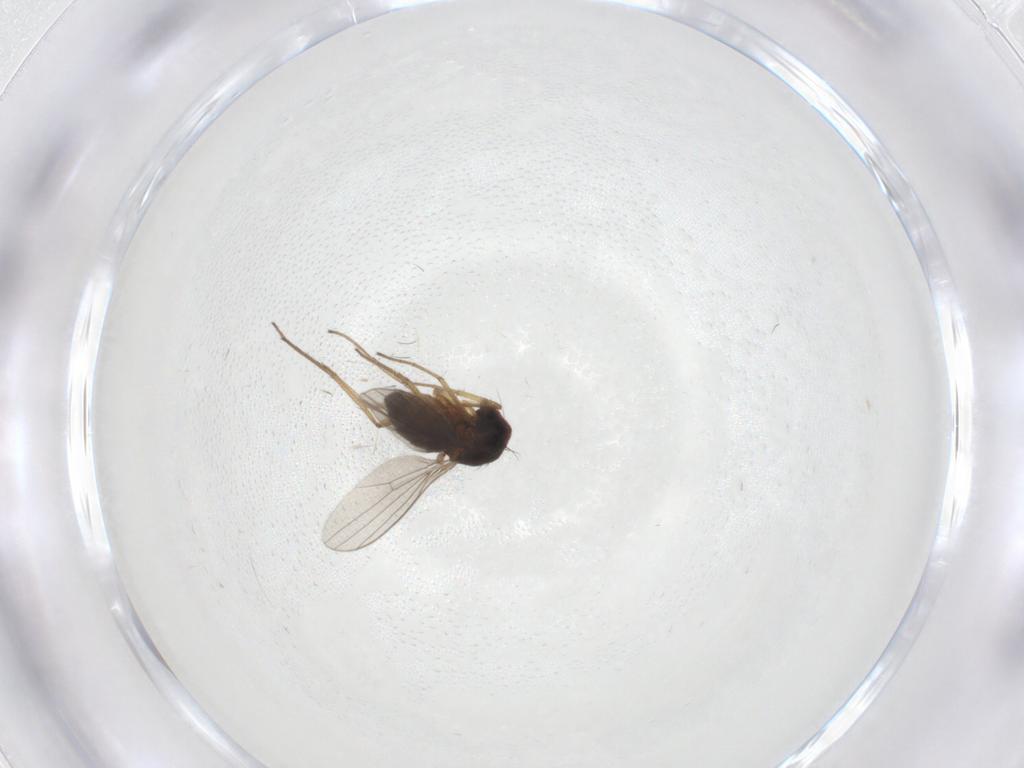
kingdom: Animalia
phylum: Arthropoda
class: Insecta
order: Diptera
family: Dolichopodidae
